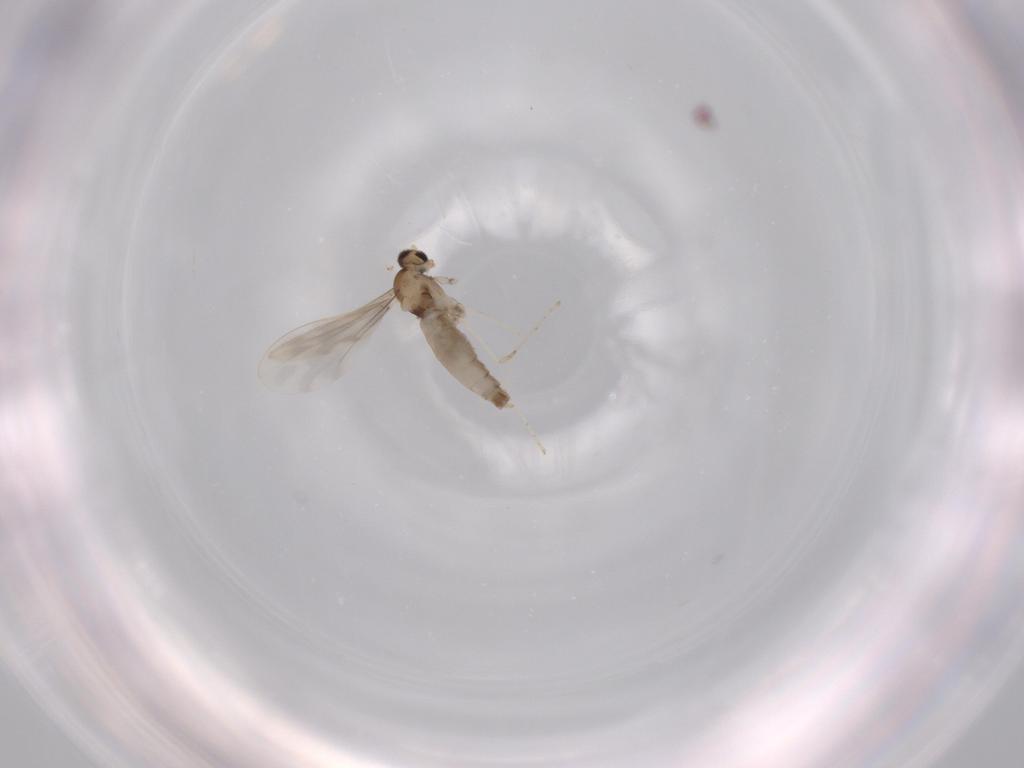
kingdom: Animalia
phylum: Arthropoda
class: Insecta
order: Diptera
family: Cecidomyiidae
